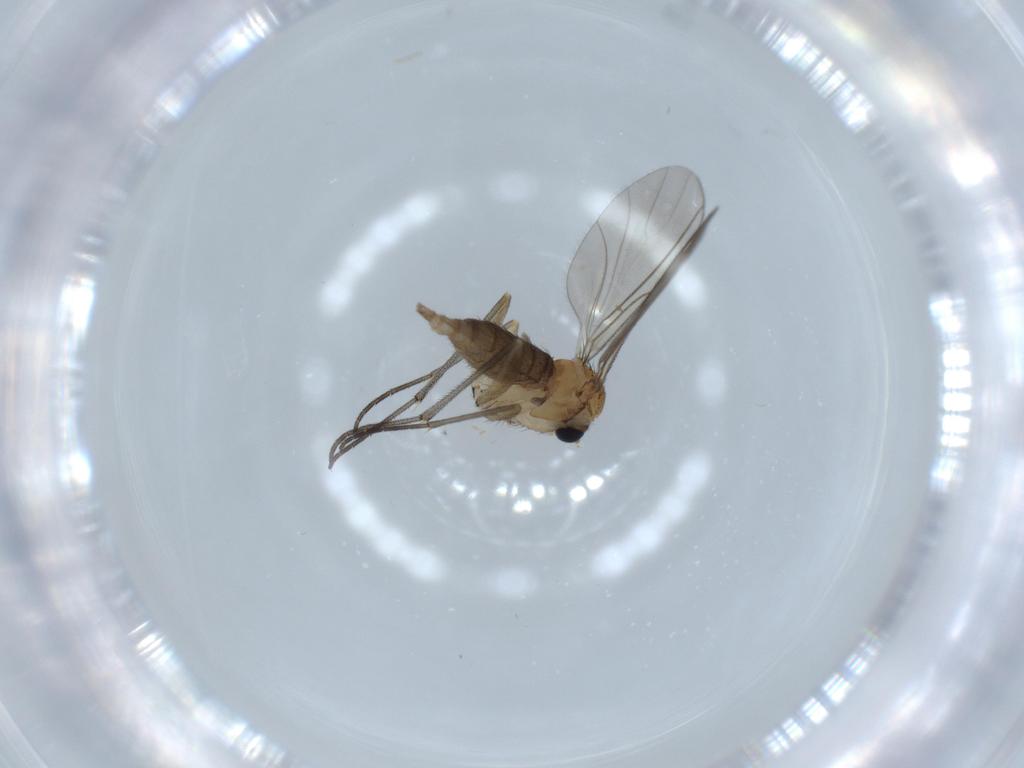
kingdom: Animalia
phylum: Arthropoda
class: Insecta
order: Diptera
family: Sciaridae
